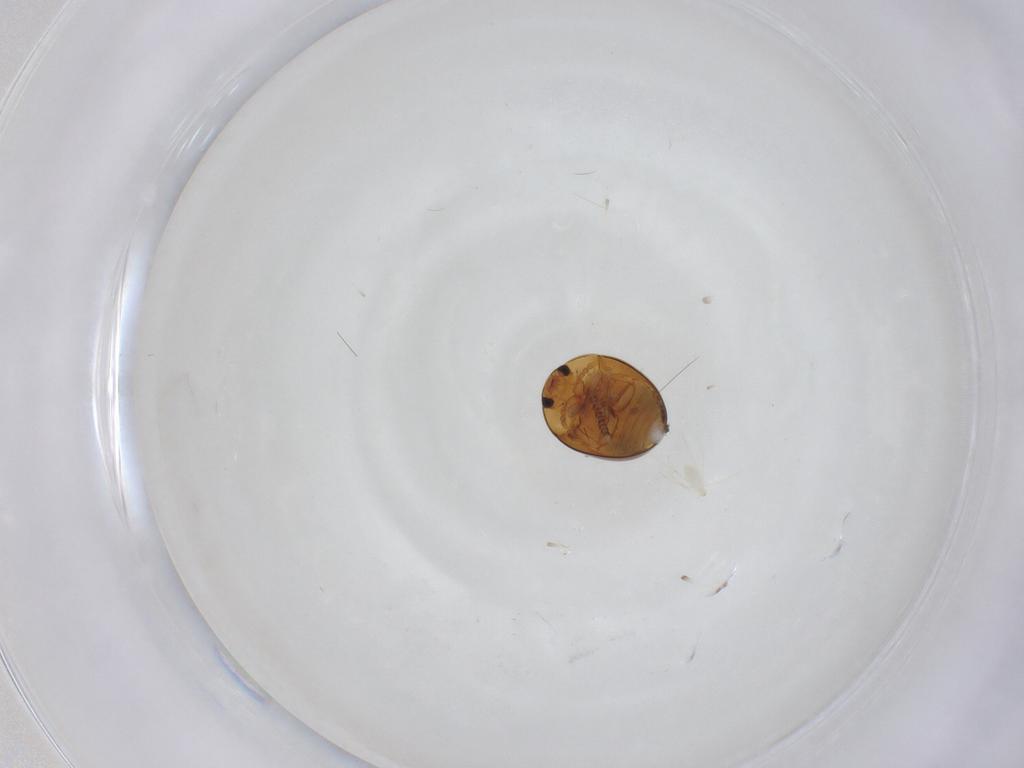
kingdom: Animalia
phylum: Arthropoda
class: Insecta
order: Coleoptera
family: Phalacridae
